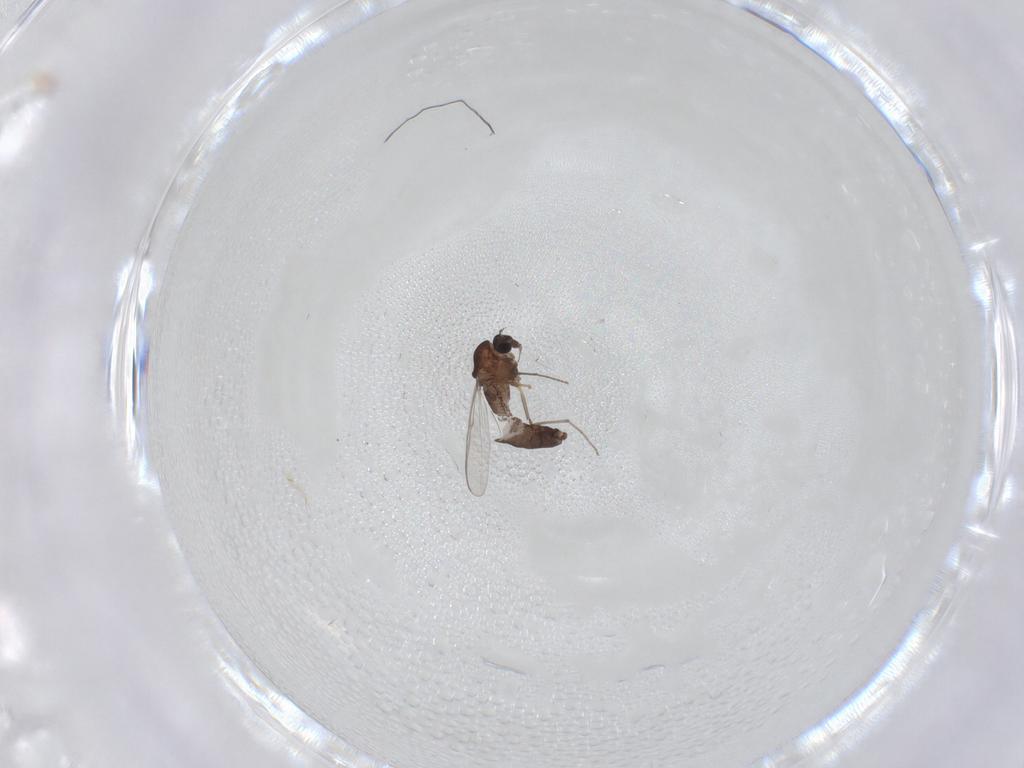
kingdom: Animalia
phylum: Arthropoda
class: Insecta
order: Diptera
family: Chironomidae
